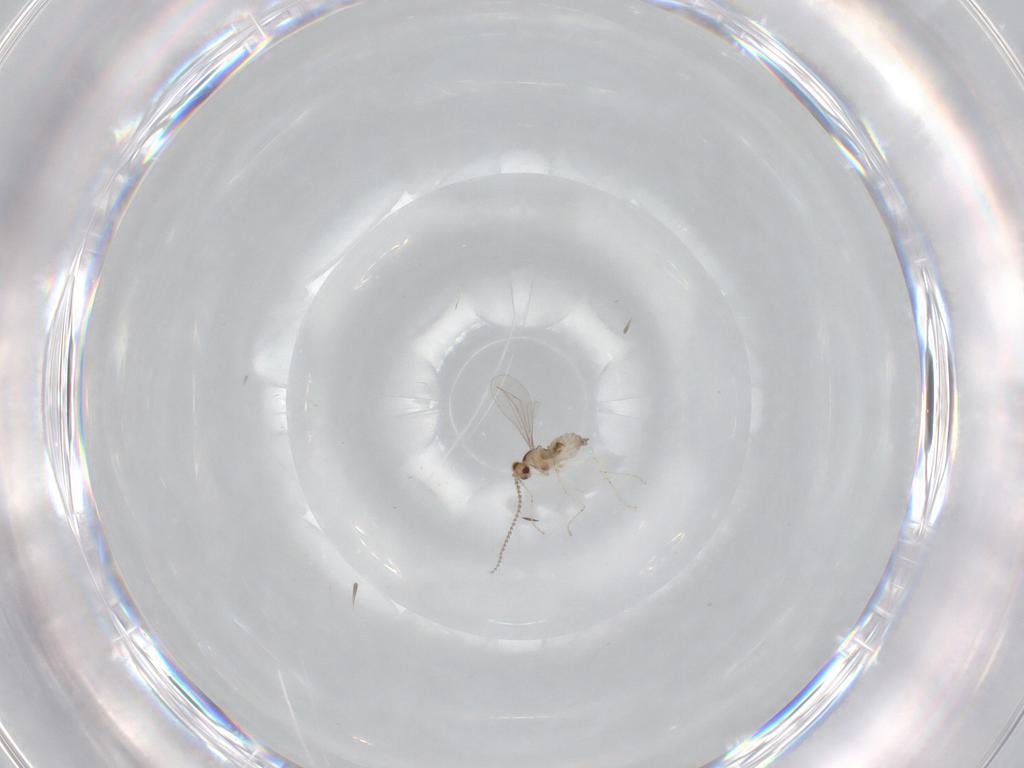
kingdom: Animalia
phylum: Arthropoda
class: Insecta
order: Diptera
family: Cecidomyiidae
